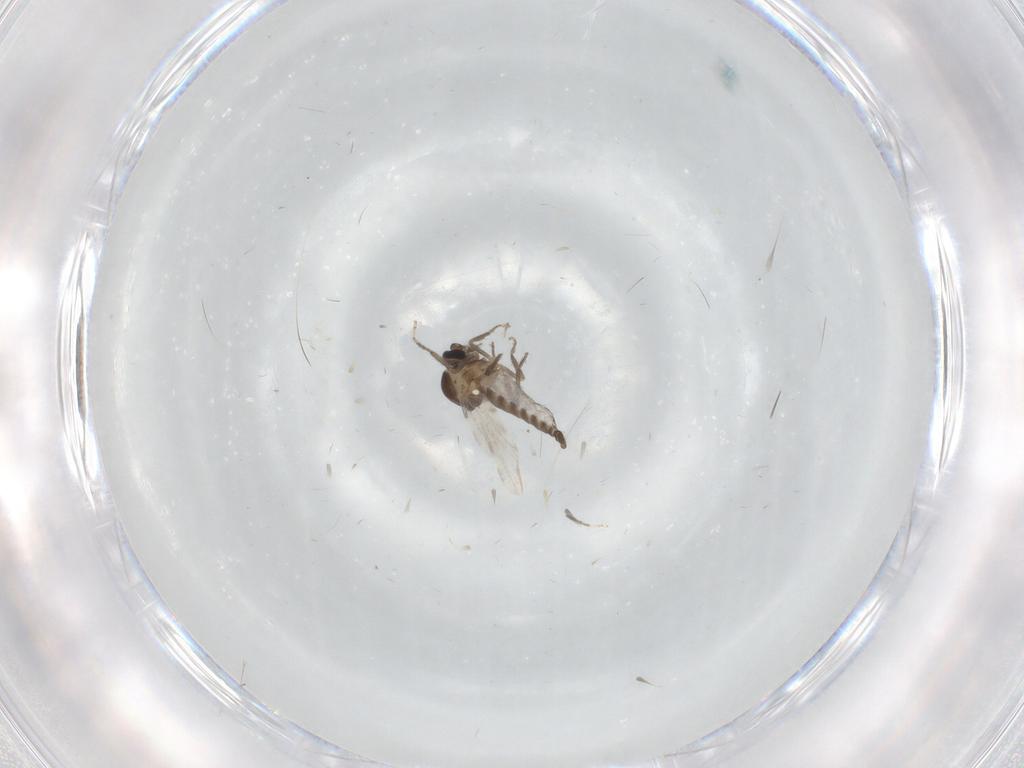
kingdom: Animalia
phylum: Arthropoda
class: Insecta
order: Diptera
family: Ceratopogonidae
